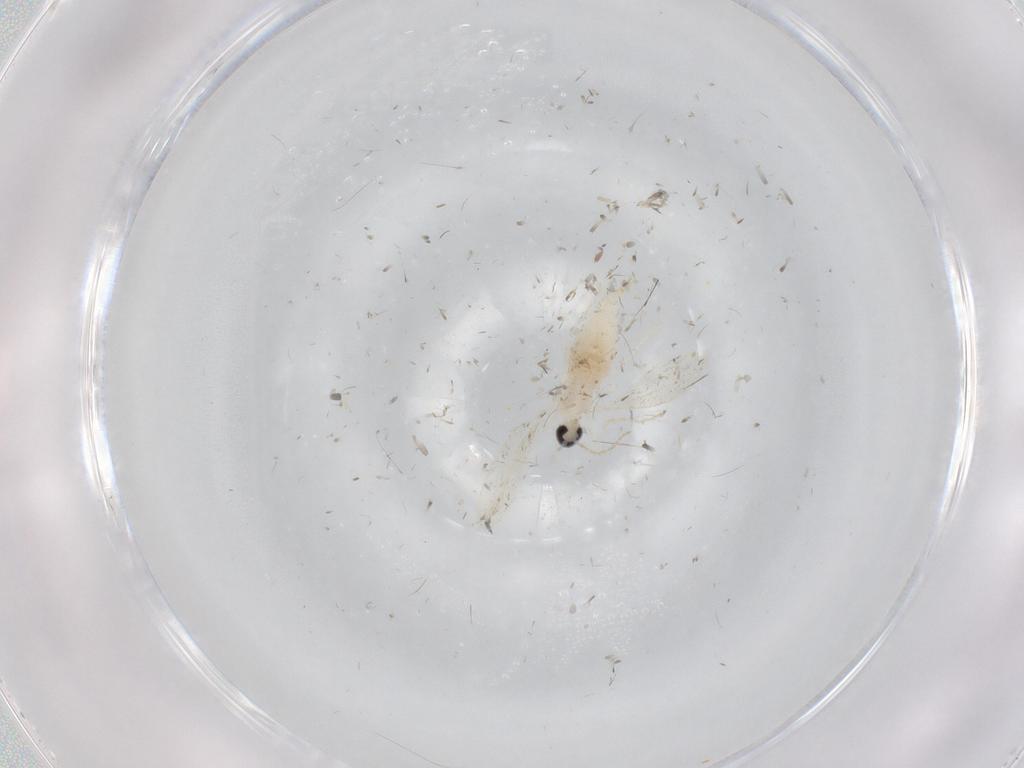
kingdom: Animalia
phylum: Arthropoda
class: Insecta
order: Diptera
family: Cecidomyiidae
